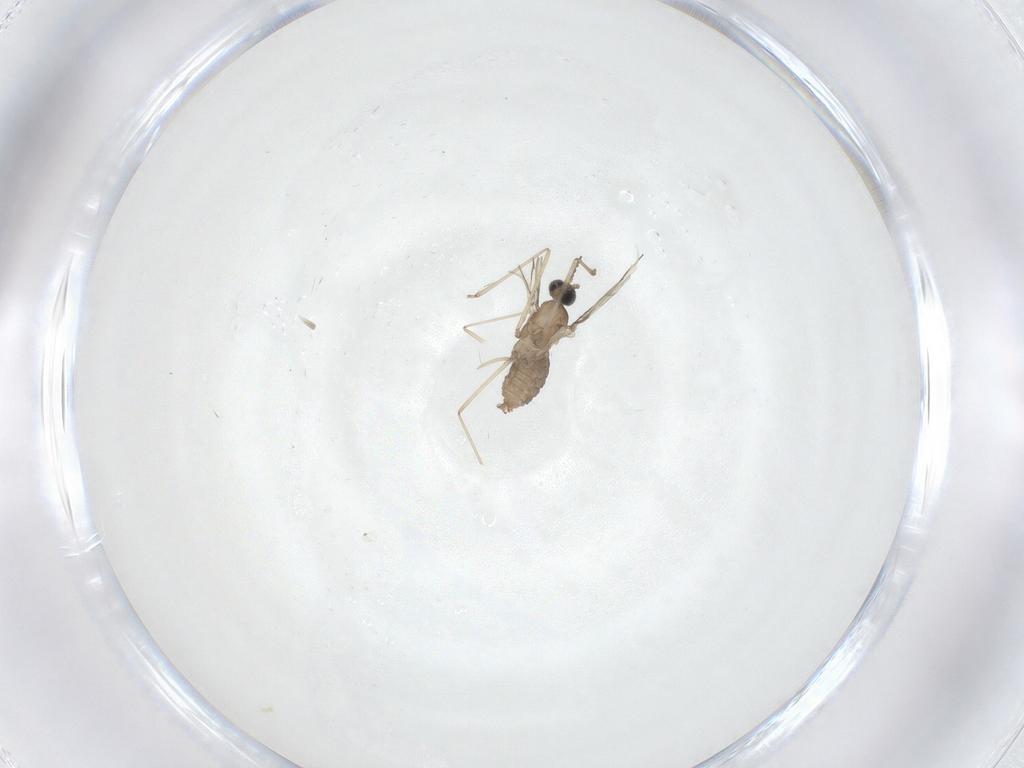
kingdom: Animalia
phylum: Arthropoda
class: Insecta
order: Diptera
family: Cecidomyiidae
